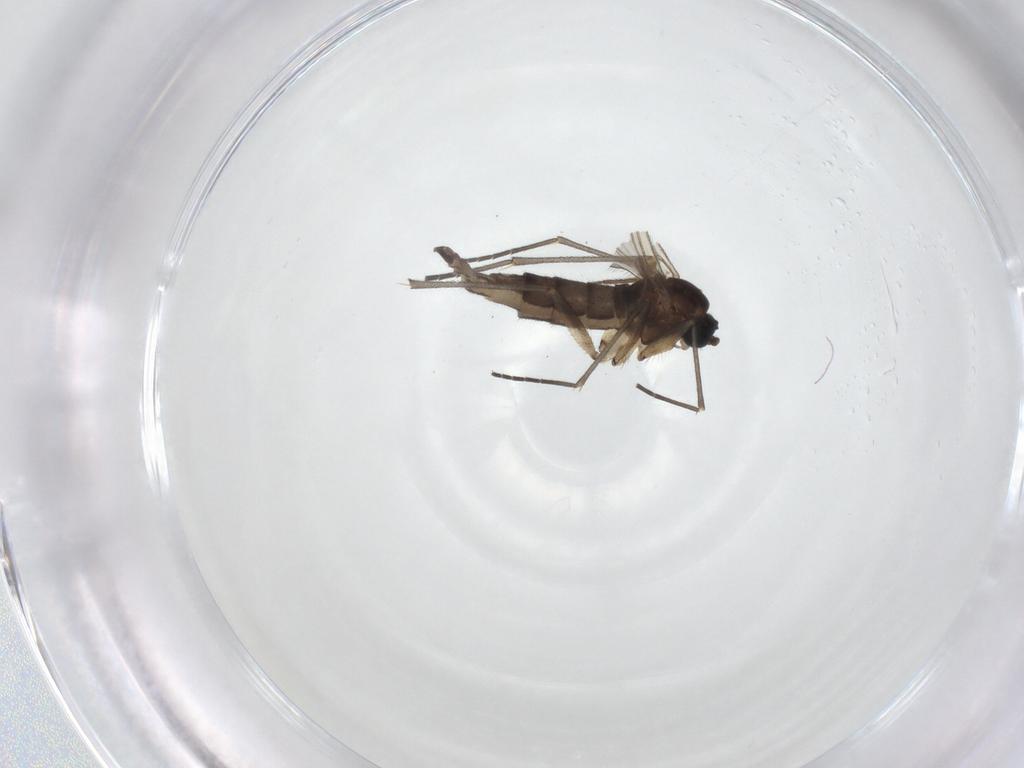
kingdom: Animalia
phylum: Arthropoda
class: Insecta
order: Diptera
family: Sciaridae
